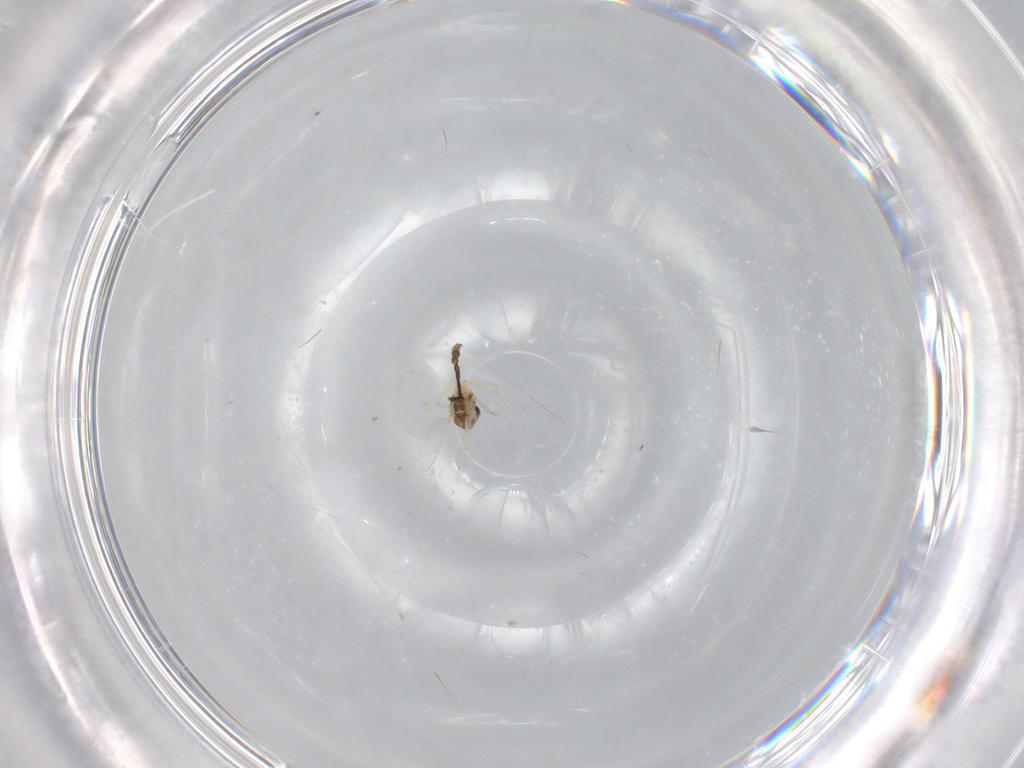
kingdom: Animalia
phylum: Arthropoda
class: Insecta
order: Diptera
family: Chironomidae
